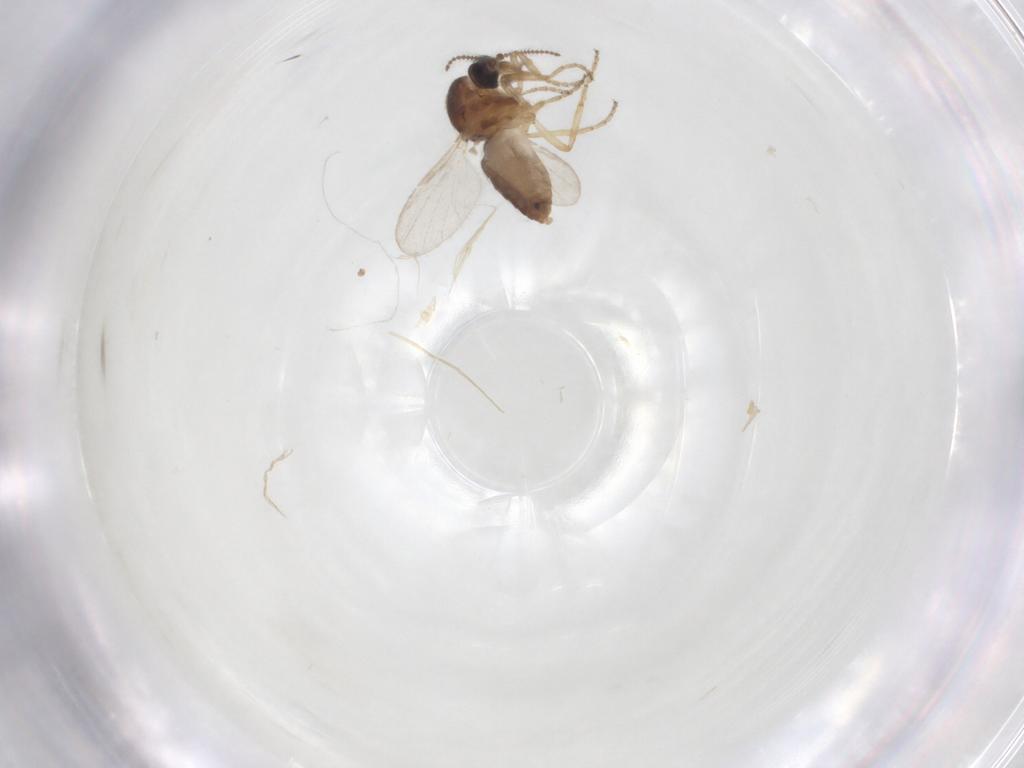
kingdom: Animalia
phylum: Arthropoda
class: Insecta
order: Diptera
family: Ceratopogonidae
